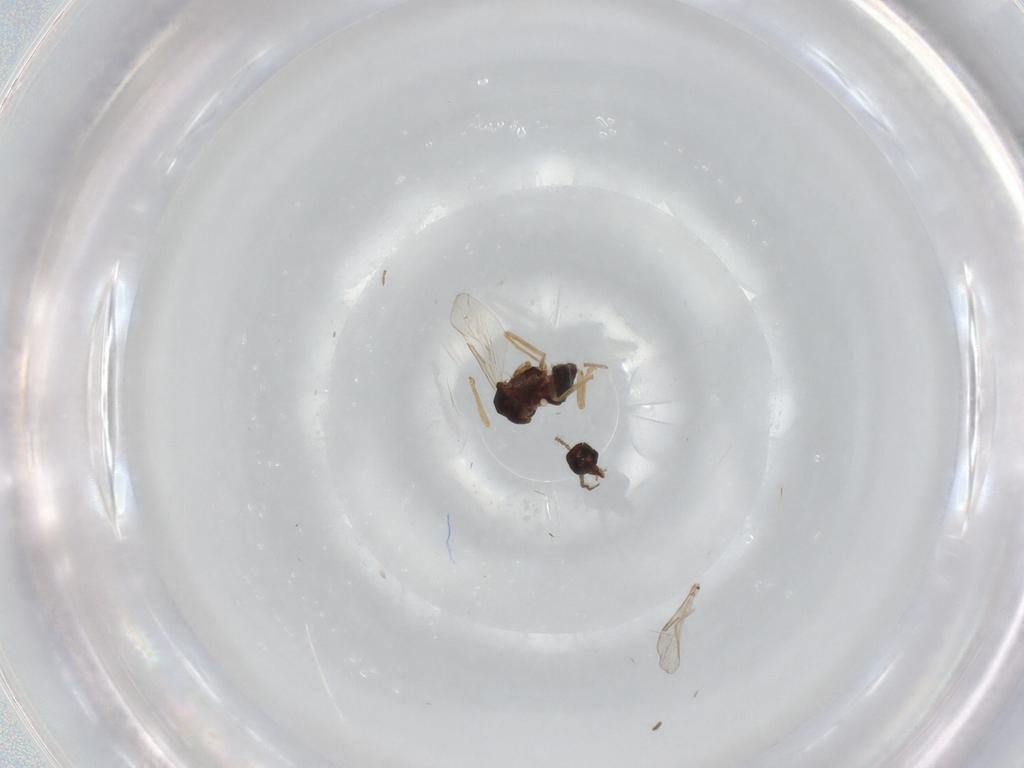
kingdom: Animalia
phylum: Arthropoda
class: Insecta
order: Diptera
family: Ceratopogonidae
